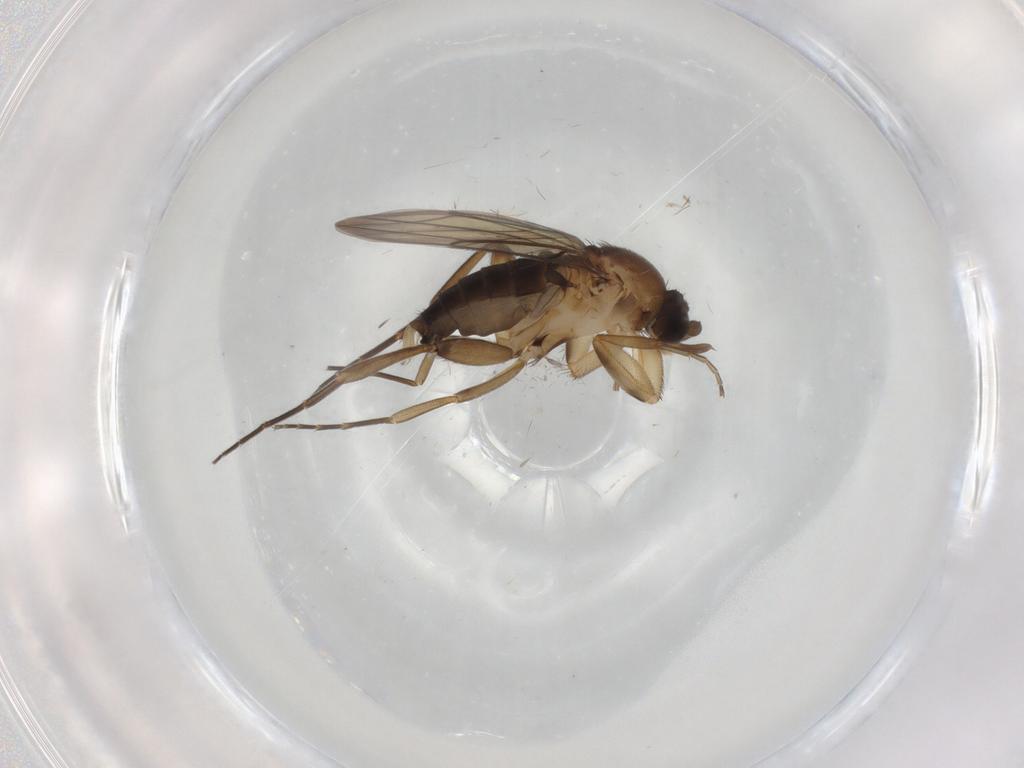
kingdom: Animalia
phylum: Arthropoda
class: Insecta
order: Diptera
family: Phoridae
